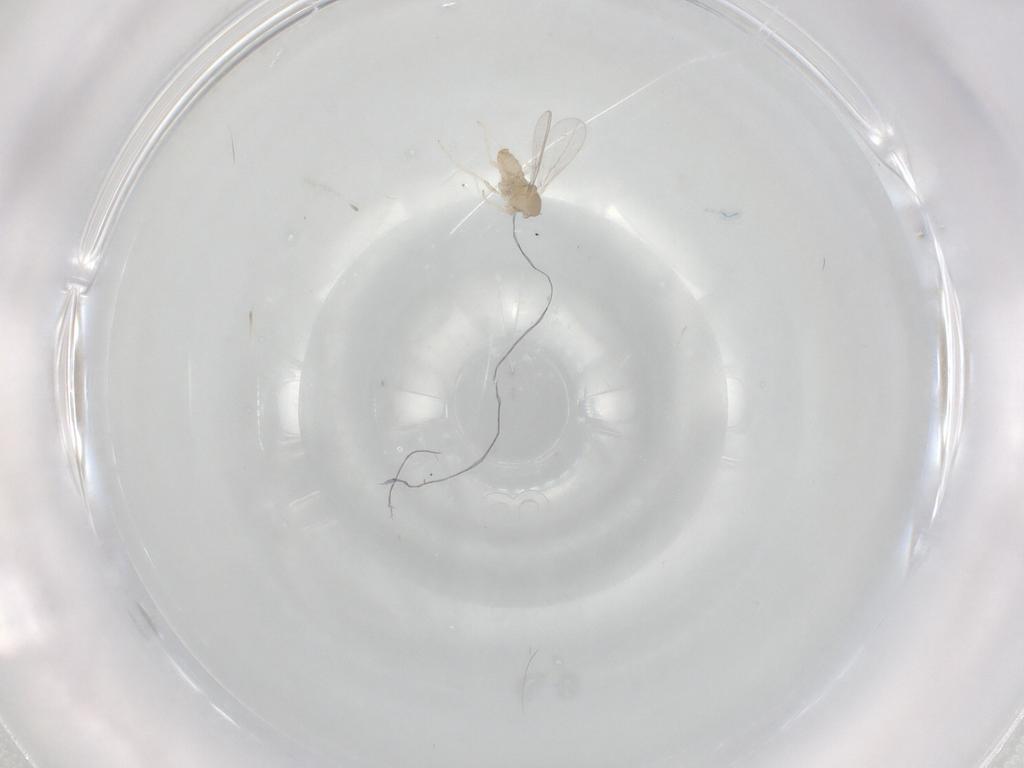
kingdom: Animalia
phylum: Arthropoda
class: Insecta
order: Diptera
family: Cecidomyiidae
